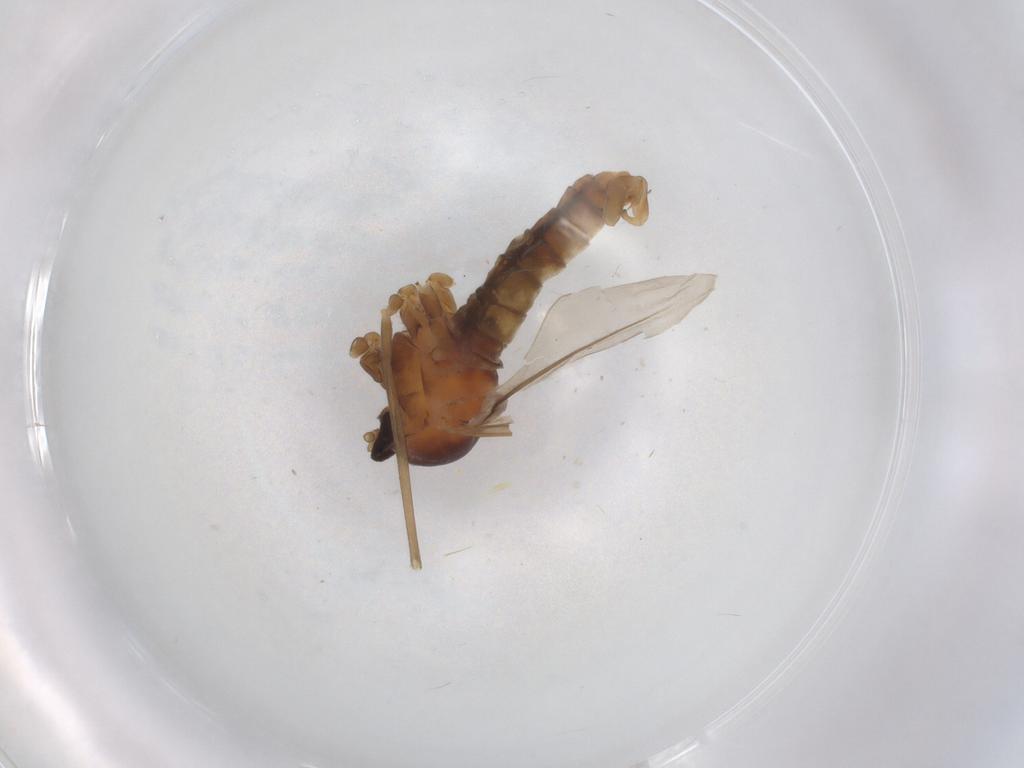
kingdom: Animalia
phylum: Arthropoda
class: Insecta
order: Diptera
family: Cecidomyiidae
